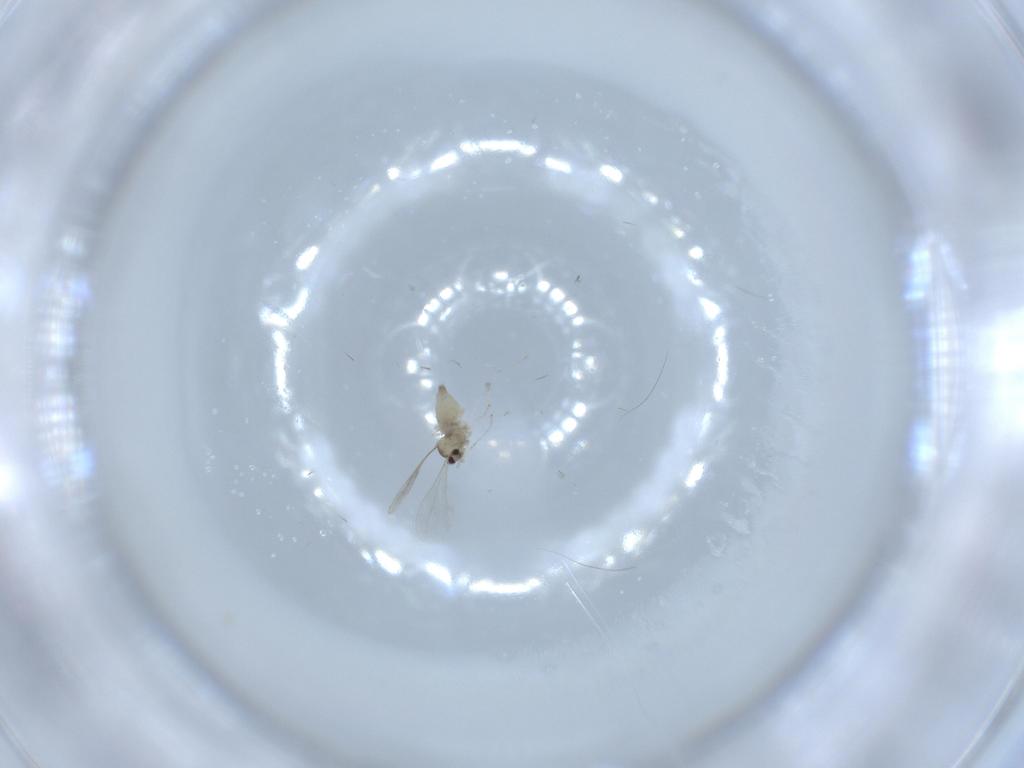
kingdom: Animalia
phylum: Arthropoda
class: Insecta
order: Diptera
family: Cecidomyiidae
